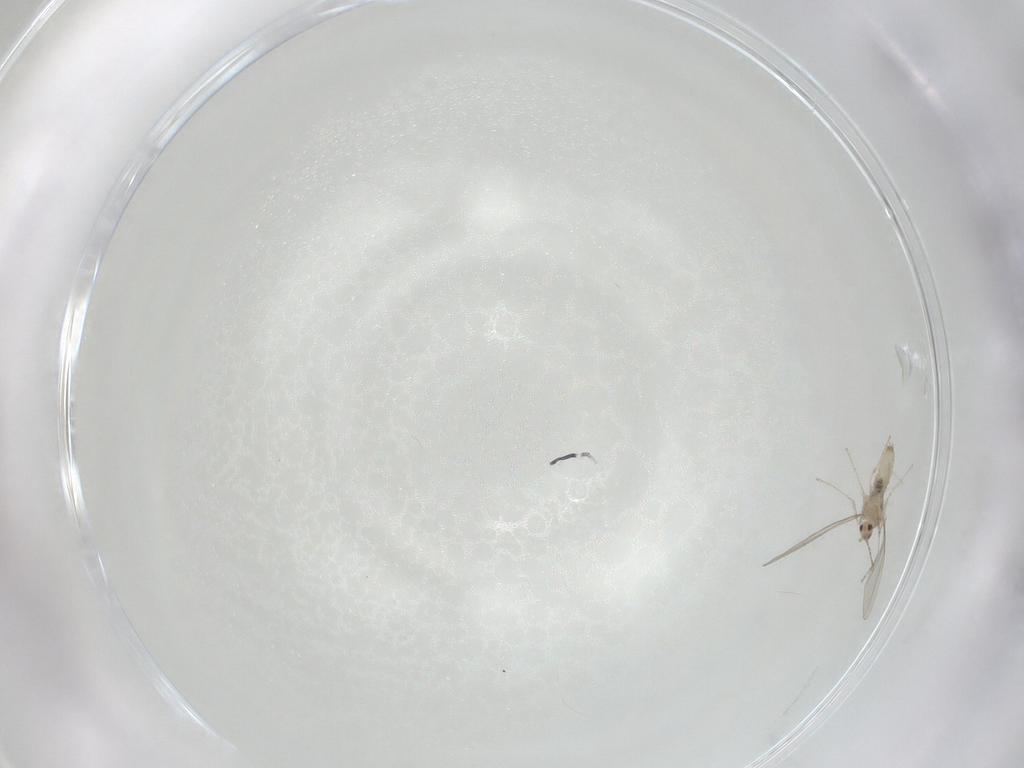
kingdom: Animalia
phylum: Arthropoda
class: Insecta
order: Diptera
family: Cecidomyiidae
